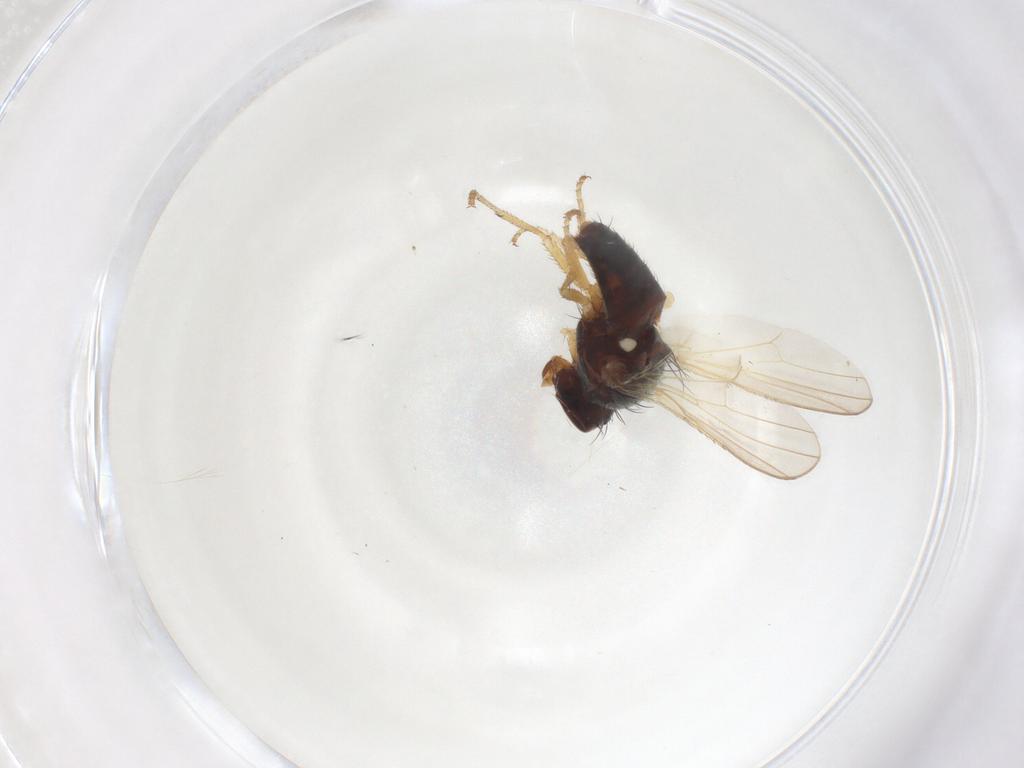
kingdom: Animalia
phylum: Arthropoda
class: Insecta
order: Diptera
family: Heleomyzidae
